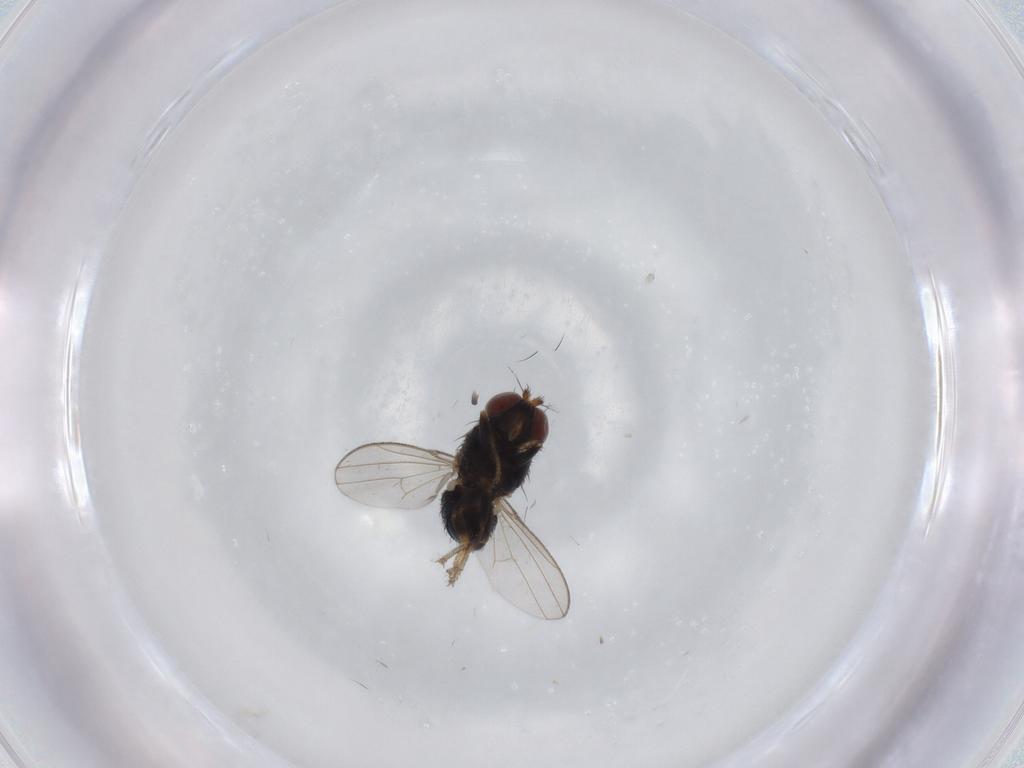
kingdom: Animalia
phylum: Arthropoda
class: Insecta
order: Diptera
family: Ephydridae
